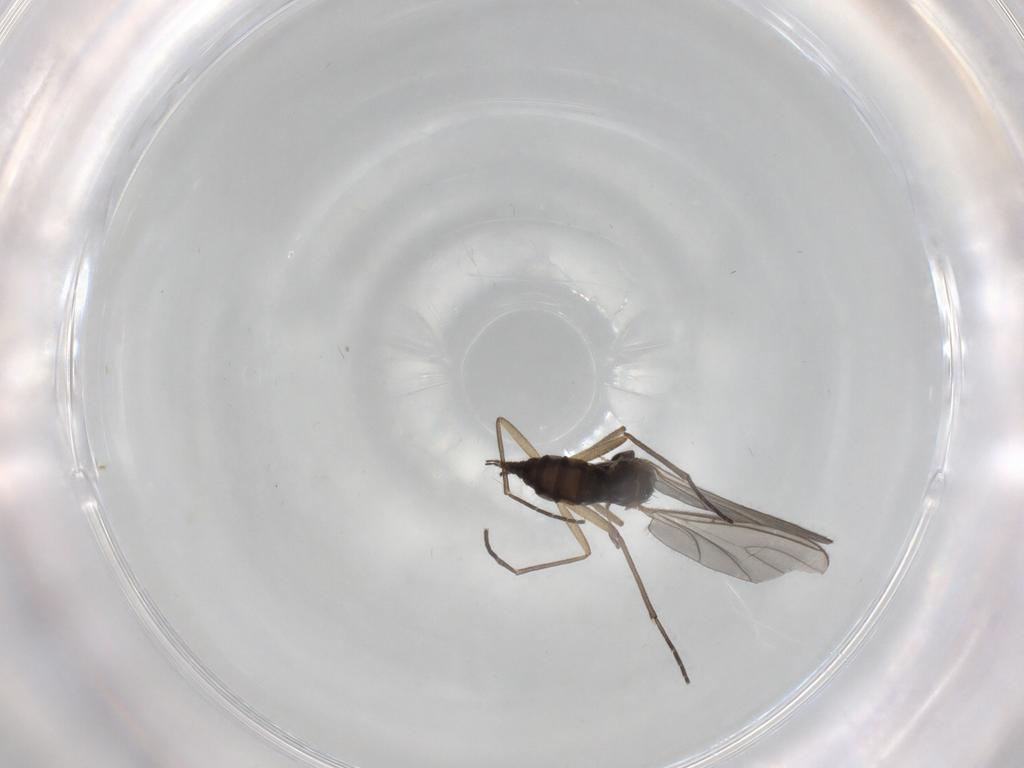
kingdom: Animalia
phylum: Arthropoda
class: Insecta
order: Diptera
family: Sciaridae
